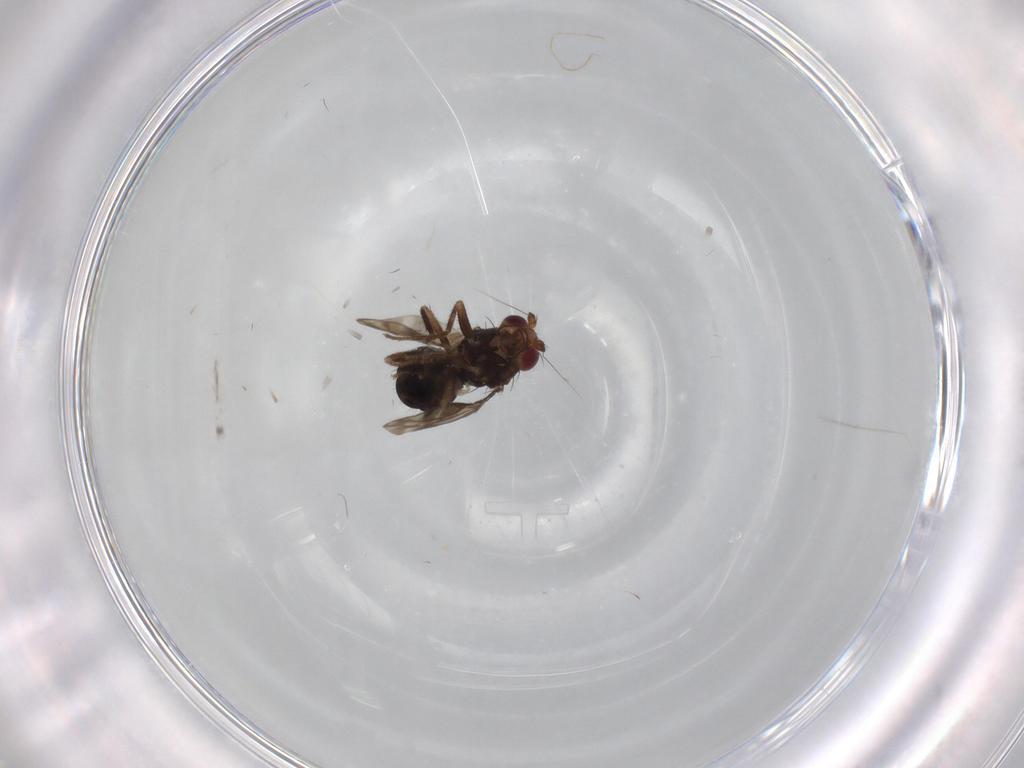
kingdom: Animalia
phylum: Arthropoda
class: Insecta
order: Diptera
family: Sphaeroceridae
